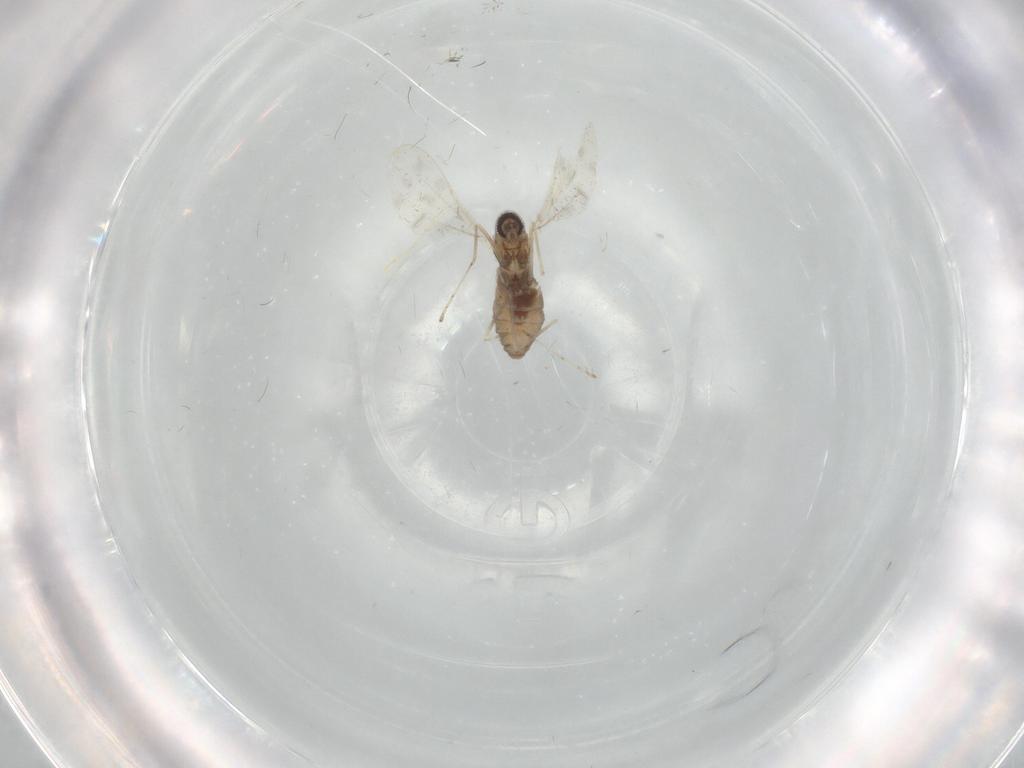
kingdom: Animalia
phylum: Arthropoda
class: Insecta
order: Diptera
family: Cecidomyiidae
